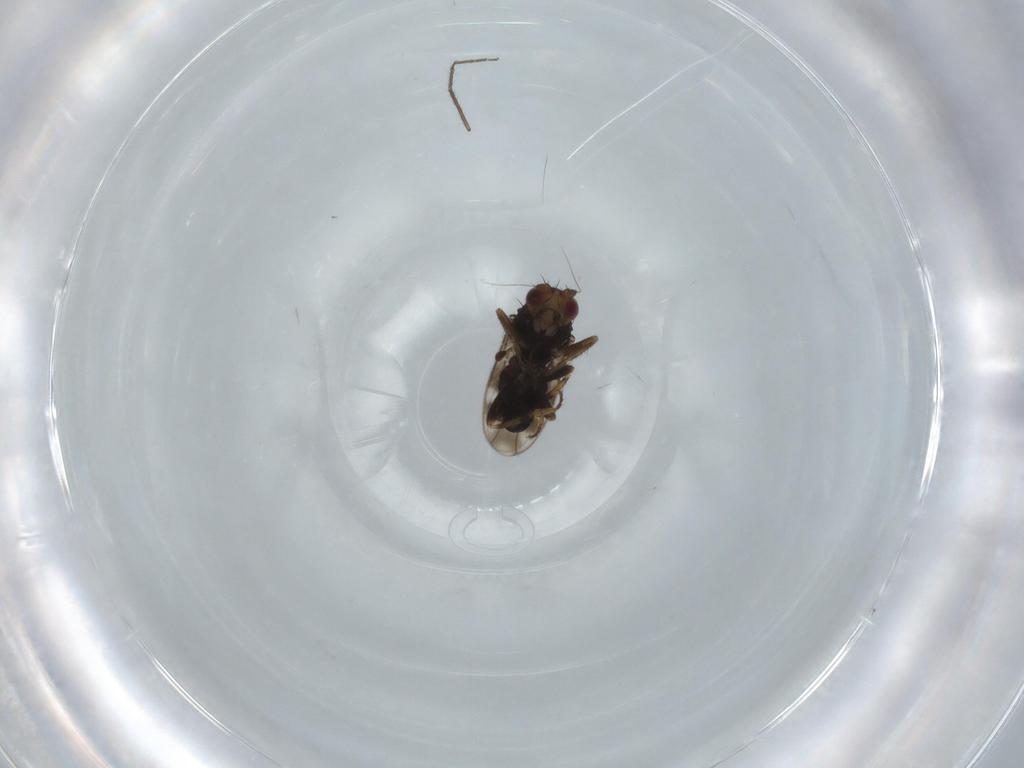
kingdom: Animalia
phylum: Arthropoda
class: Insecta
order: Diptera
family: Sphaeroceridae
